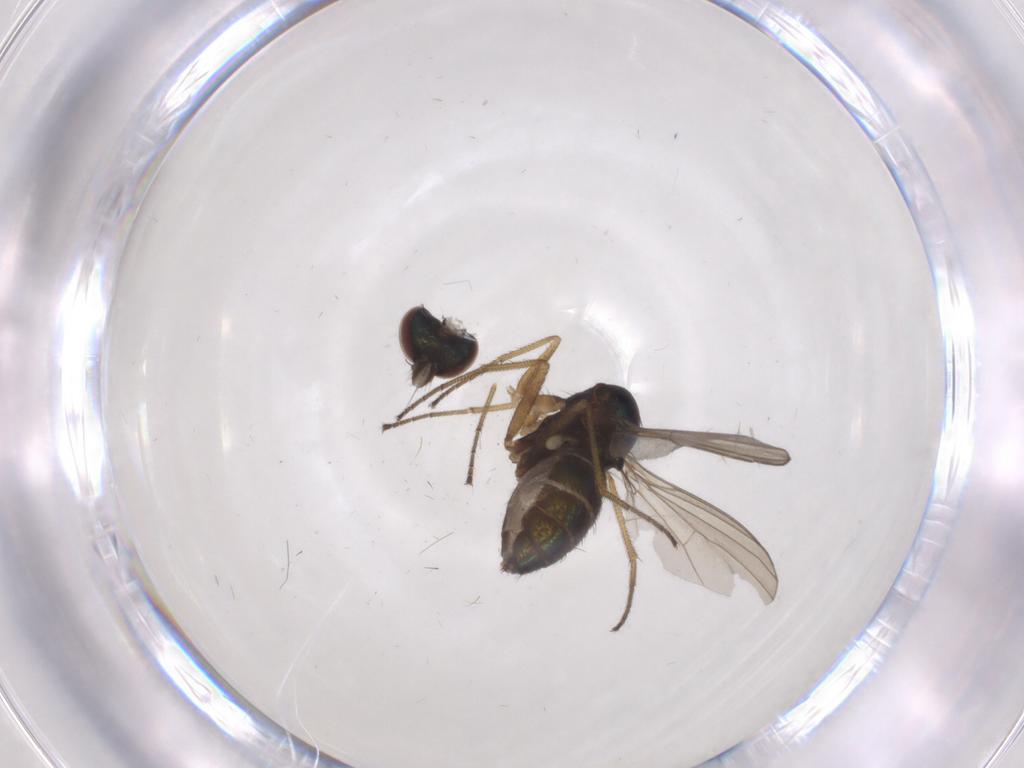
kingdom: Animalia
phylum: Arthropoda
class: Insecta
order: Diptera
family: Dolichopodidae
